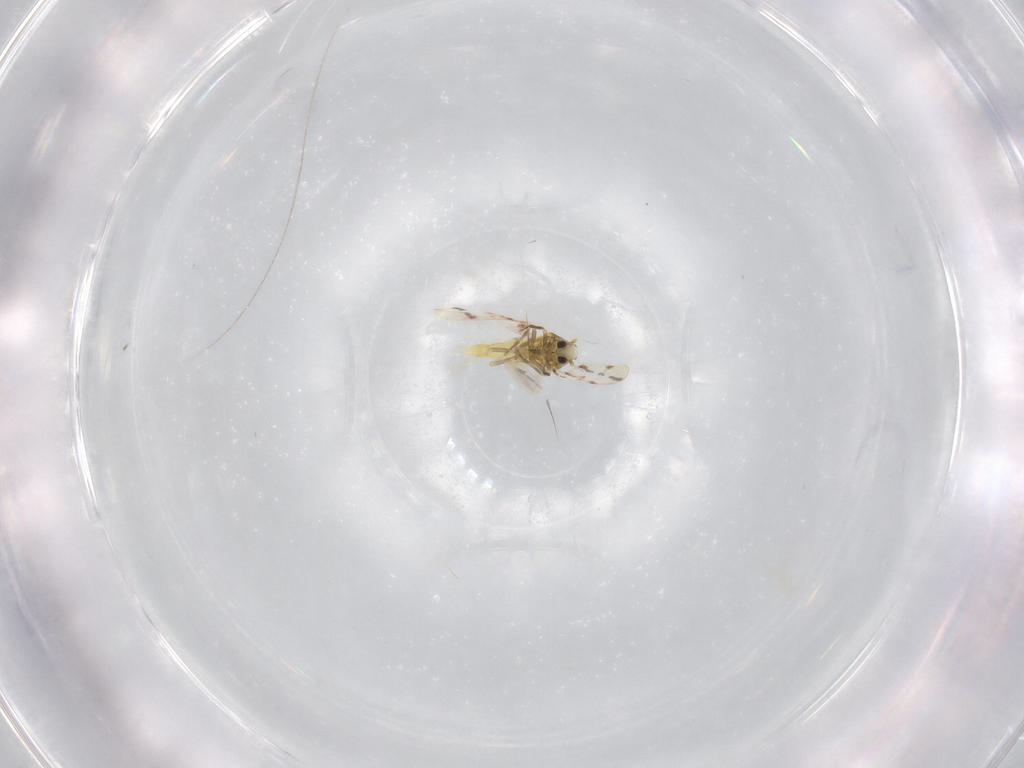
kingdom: Animalia
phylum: Arthropoda
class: Insecta
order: Hemiptera
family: Aleyrodidae
